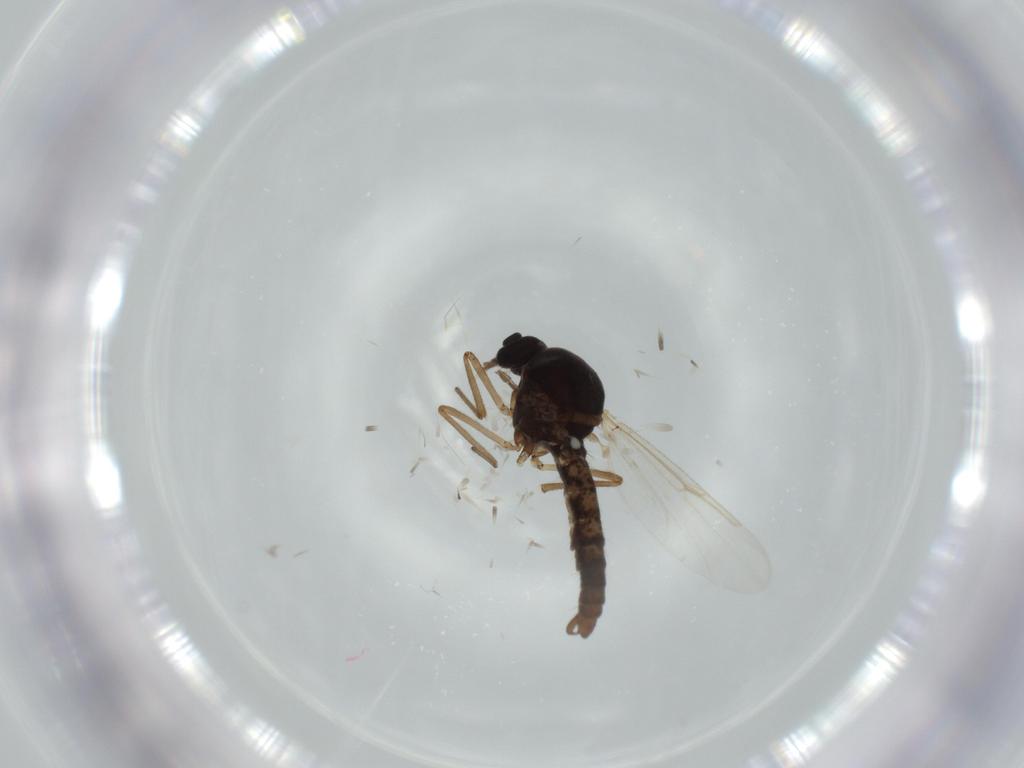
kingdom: Animalia
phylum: Arthropoda
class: Insecta
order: Diptera
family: Ceratopogonidae
